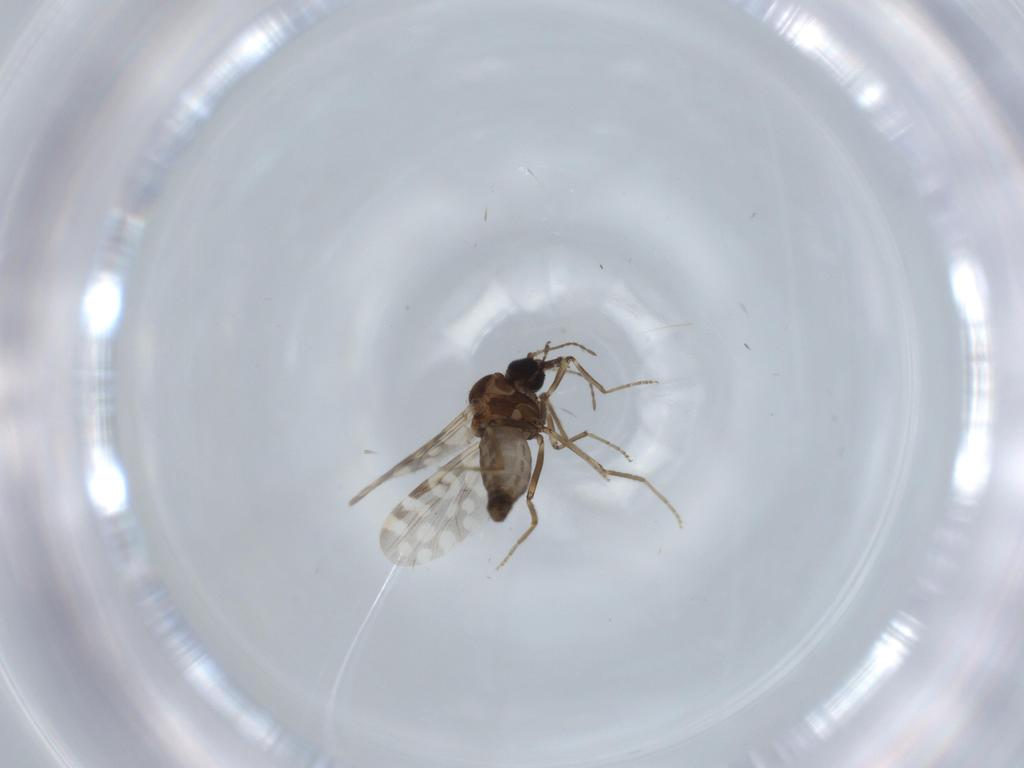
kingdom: Animalia
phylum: Arthropoda
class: Insecta
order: Diptera
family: Ceratopogonidae
